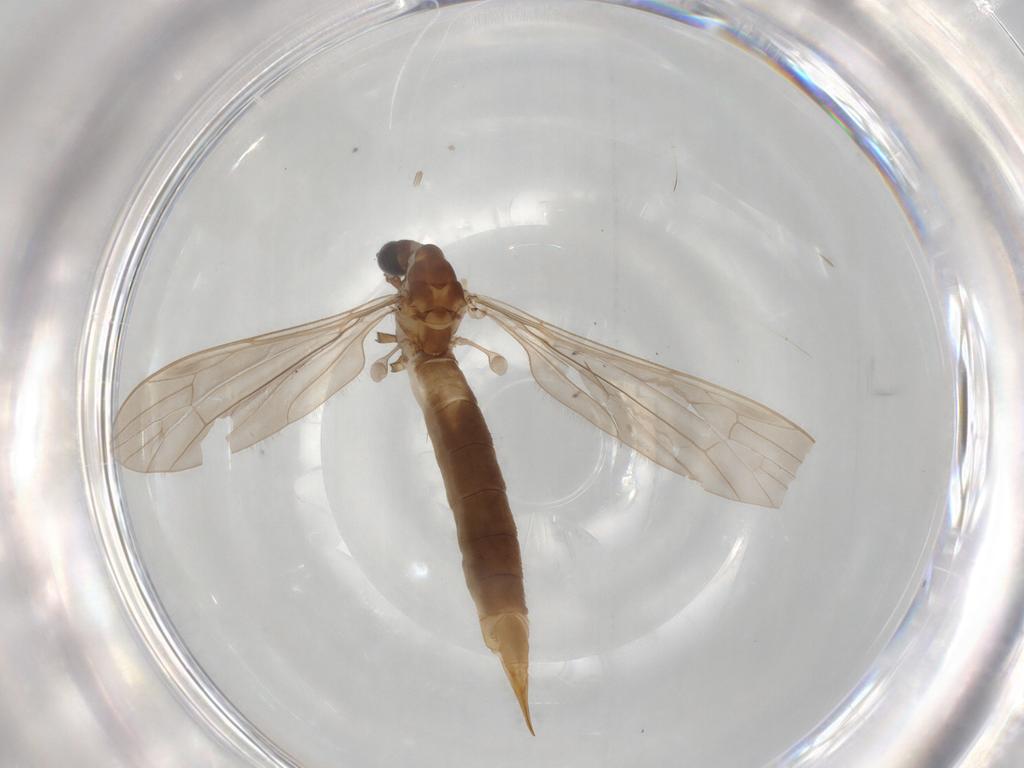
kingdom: Animalia
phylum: Arthropoda
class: Insecta
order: Diptera
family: Limoniidae
